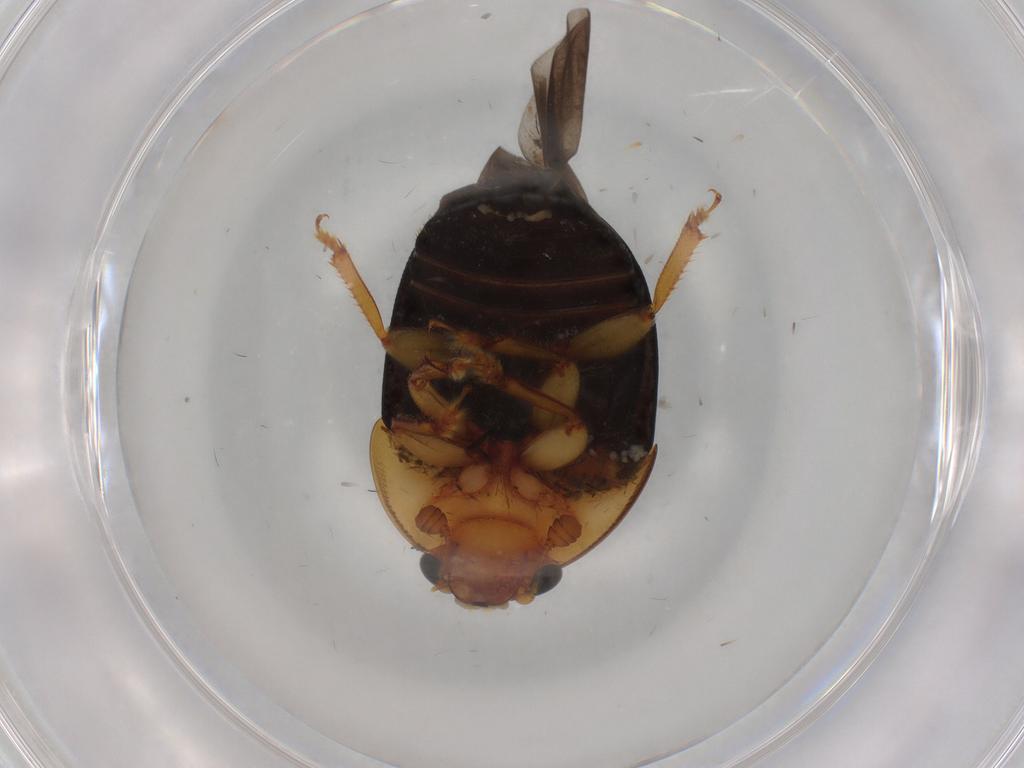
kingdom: Animalia
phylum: Arthropoda
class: Insecta
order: Coleoptera
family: Nitidulidae
